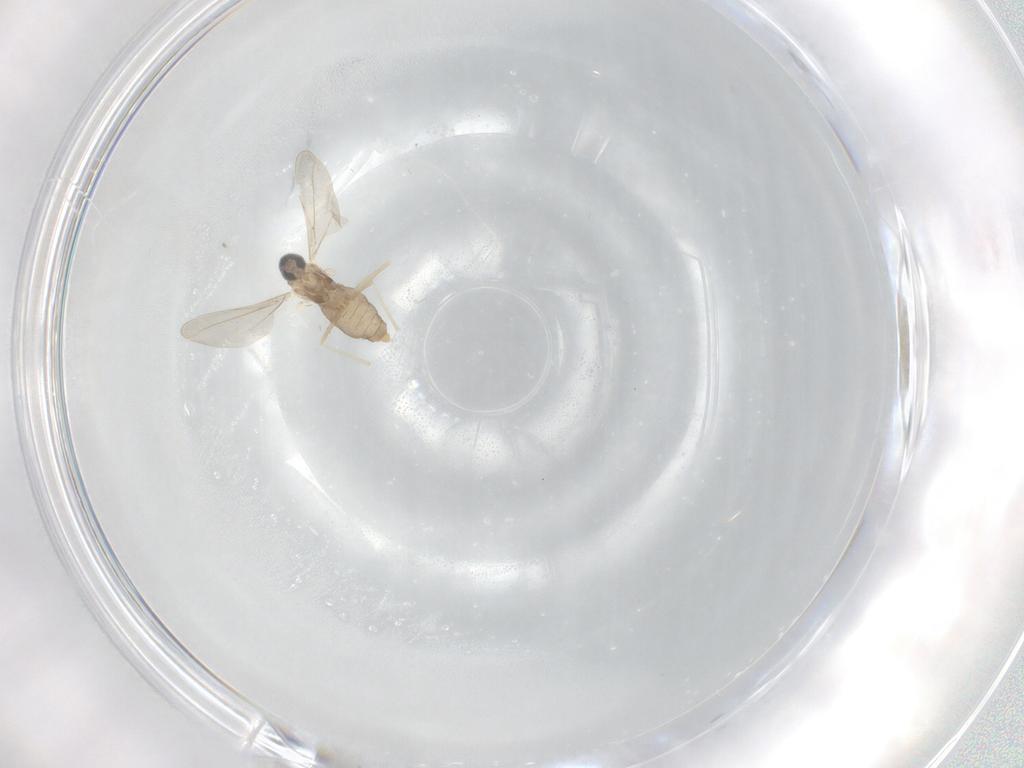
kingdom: Animalia
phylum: Arthropoda
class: Insecta
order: Diptera
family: Cecidomyiidae
